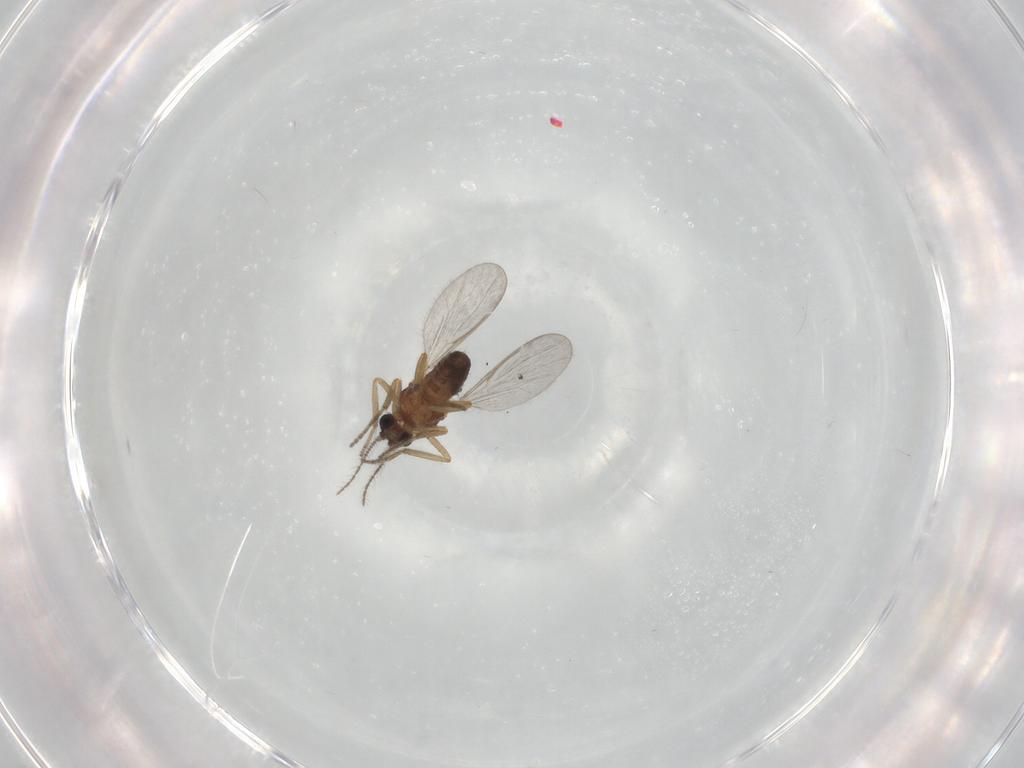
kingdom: Animalia
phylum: Arthropoda
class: Insecta
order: Diptera
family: Ceratopogonidae
